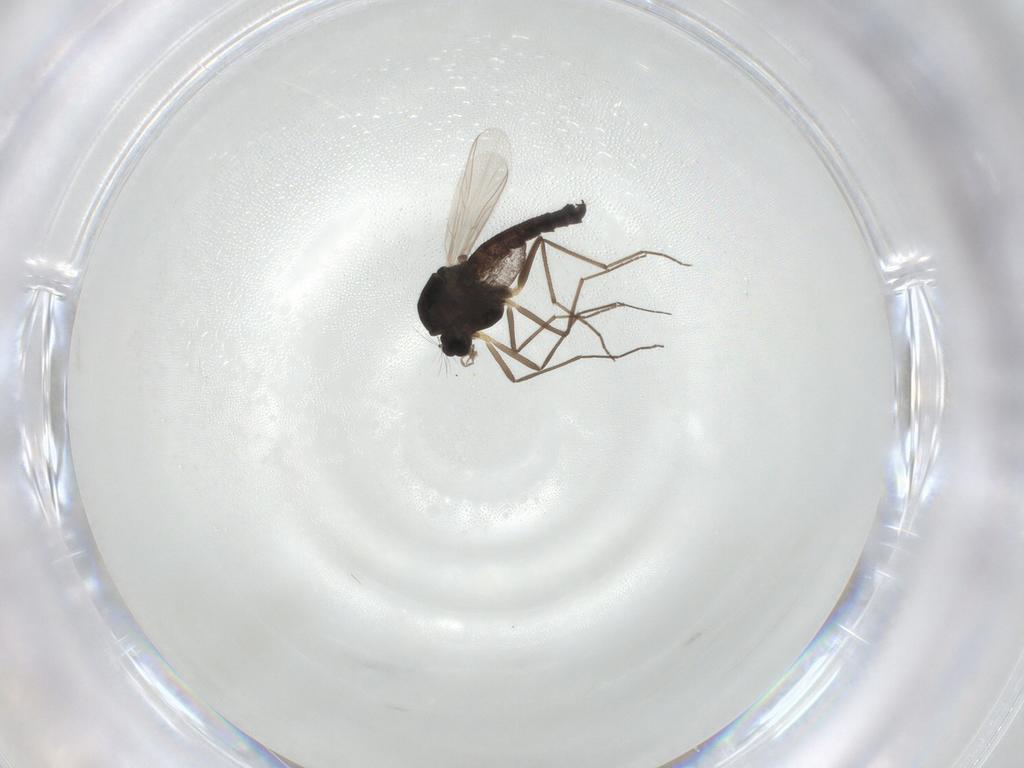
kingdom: Animalia
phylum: Arthropoda
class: Insecta
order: Diptera
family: Chironomidae
